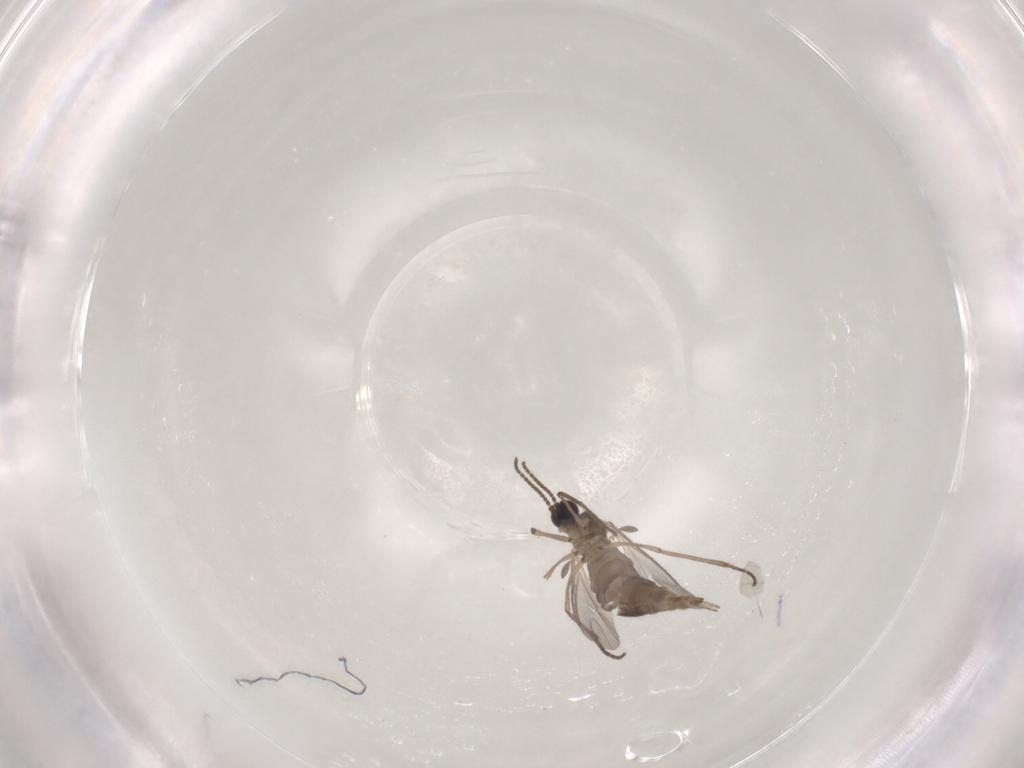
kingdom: Animalia
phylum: Arthropoda
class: Insecta
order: Diptera
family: Sciaridae
